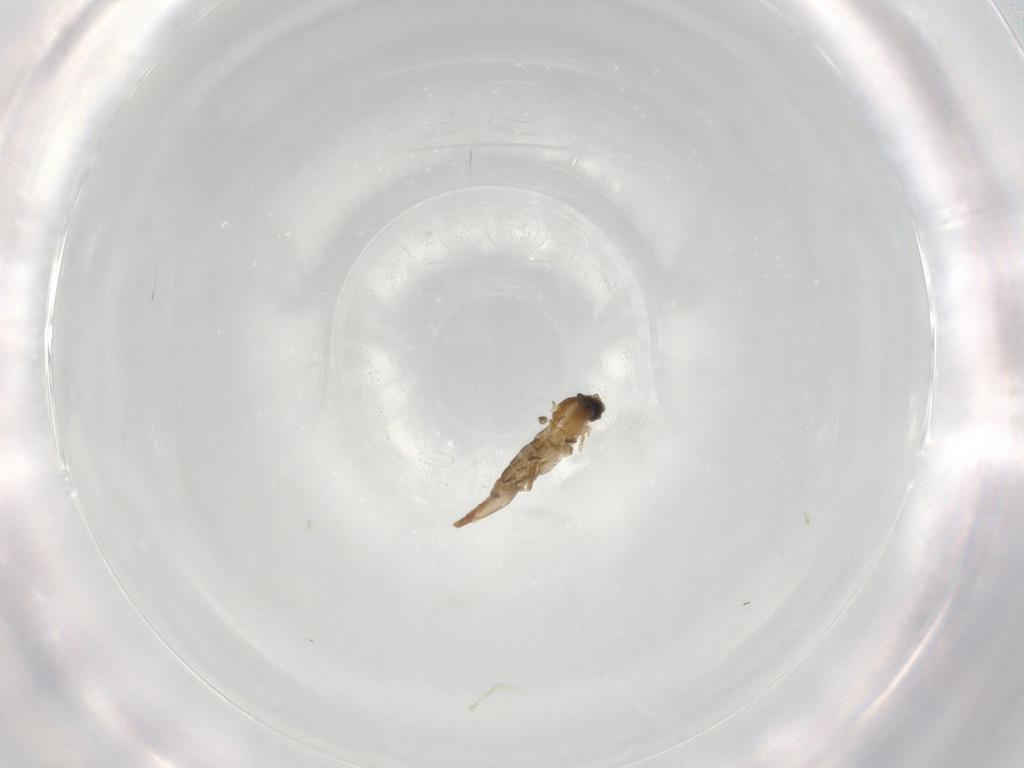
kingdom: Animalia
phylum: Arthropoda
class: Insecta
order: Diptera
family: Cecidomyiidae
